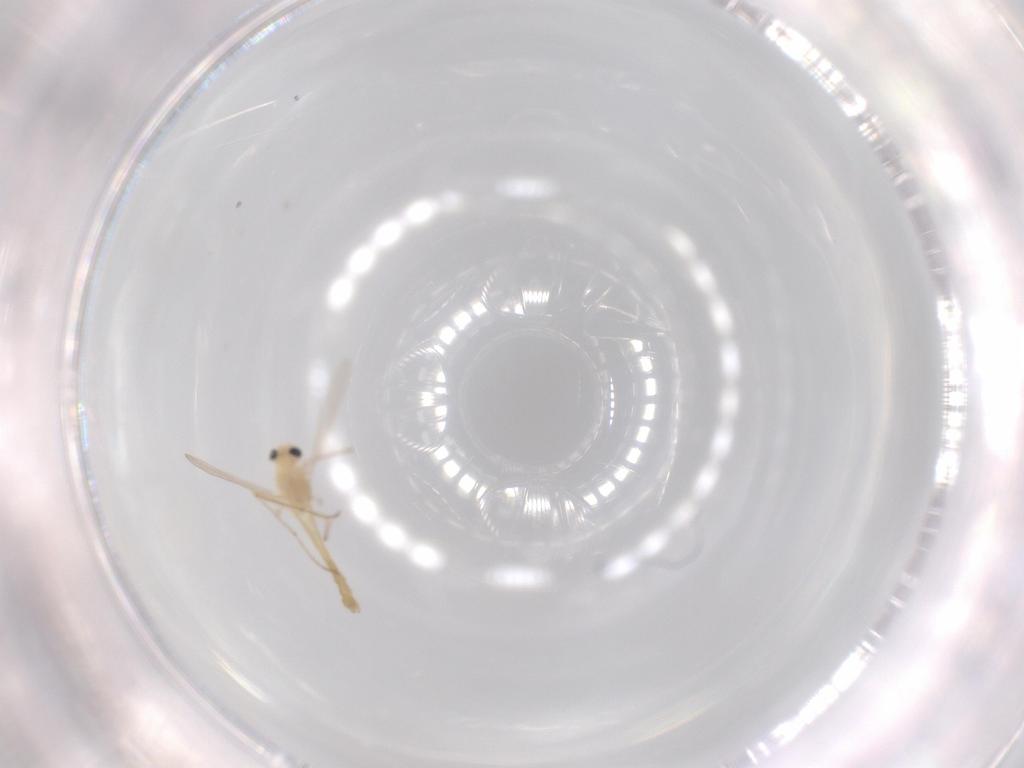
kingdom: Animalia
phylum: Arthropoda
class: Insecta
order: Diptera
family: Chironomidae
